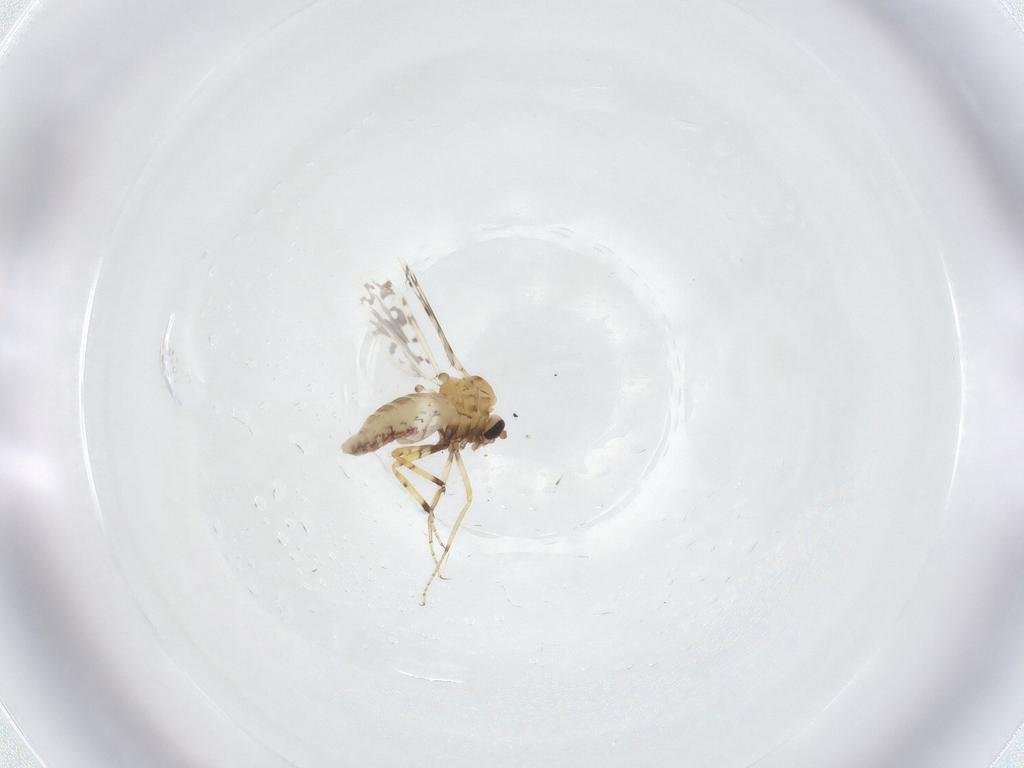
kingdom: Animalia
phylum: Arthropoda
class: Insecta
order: Diptera
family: Ceratopogonidae
